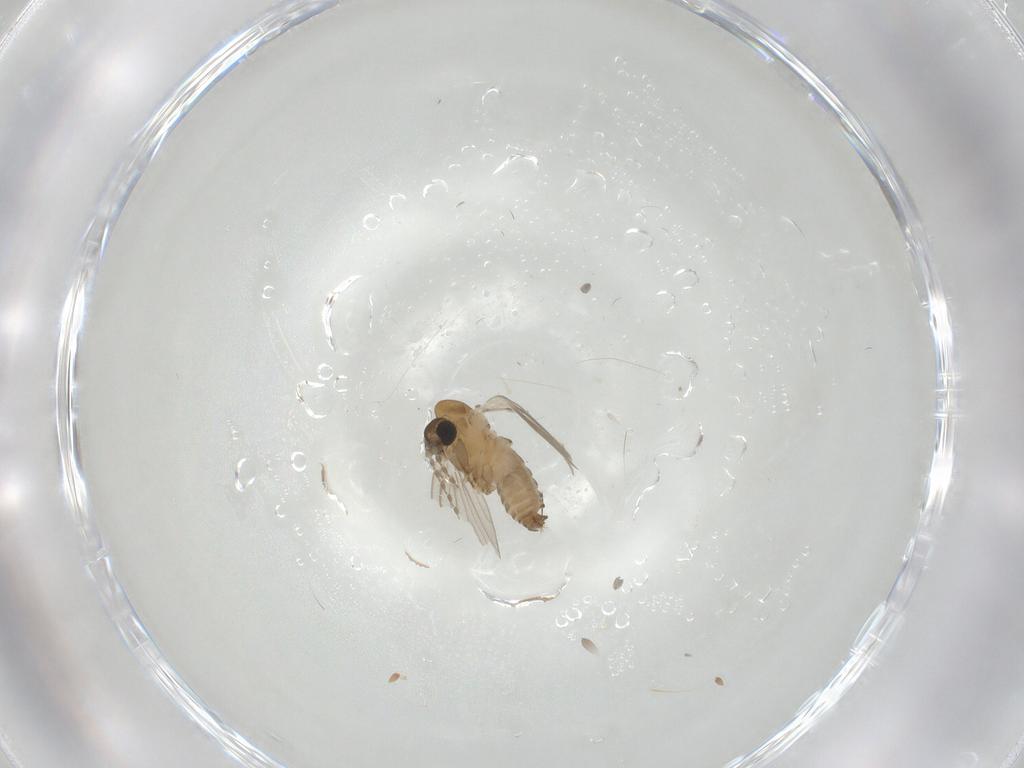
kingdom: Animalia
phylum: Arthropoda
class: Insecta
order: Diptera
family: Psychodidae
